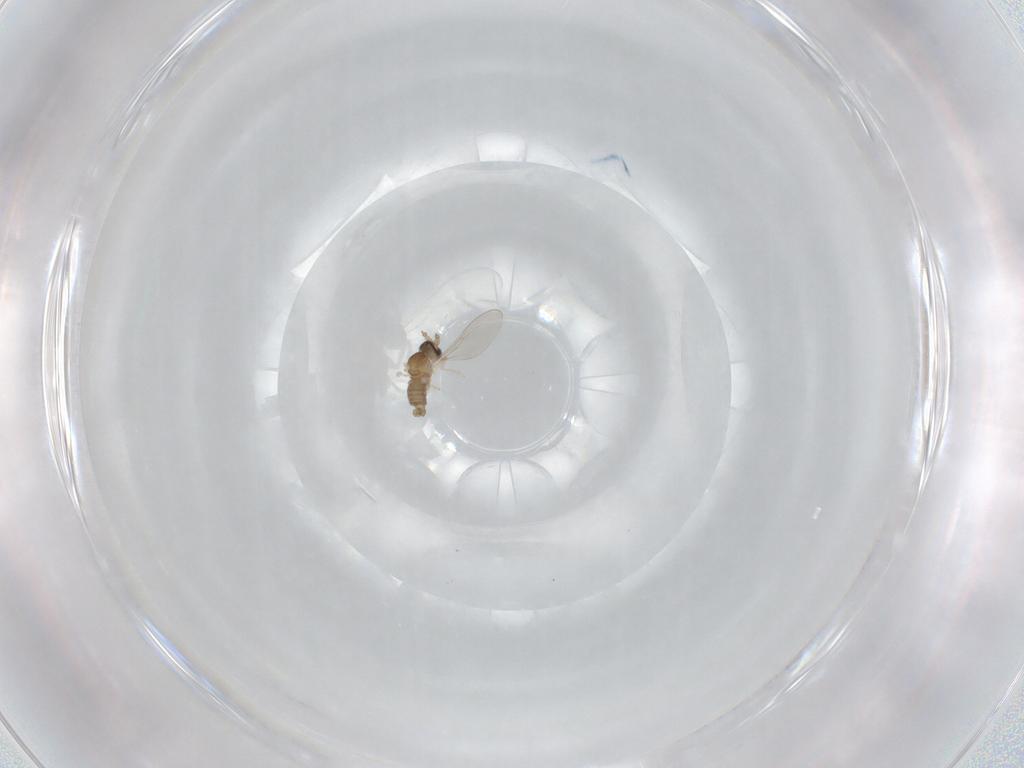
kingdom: Animalia
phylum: Arthropoda
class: Insecta
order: Diptera
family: Cecidomyiidae
